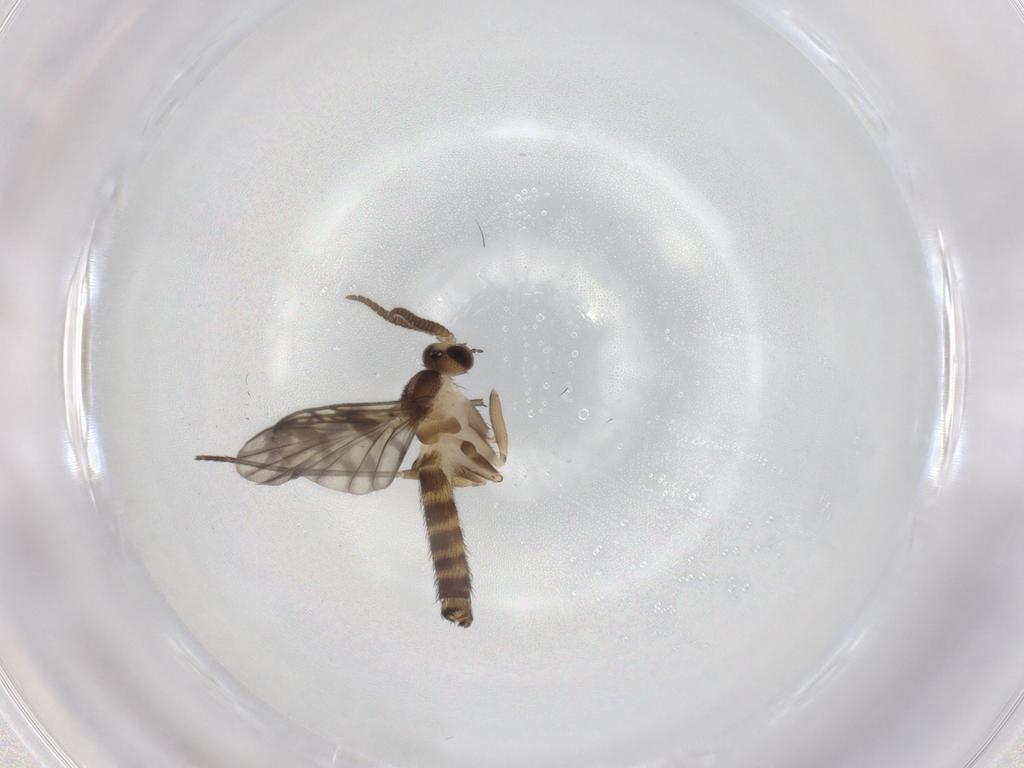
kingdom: Animalia
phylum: Arthropoda
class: Insecta
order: Diptera
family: Keroplatidae
